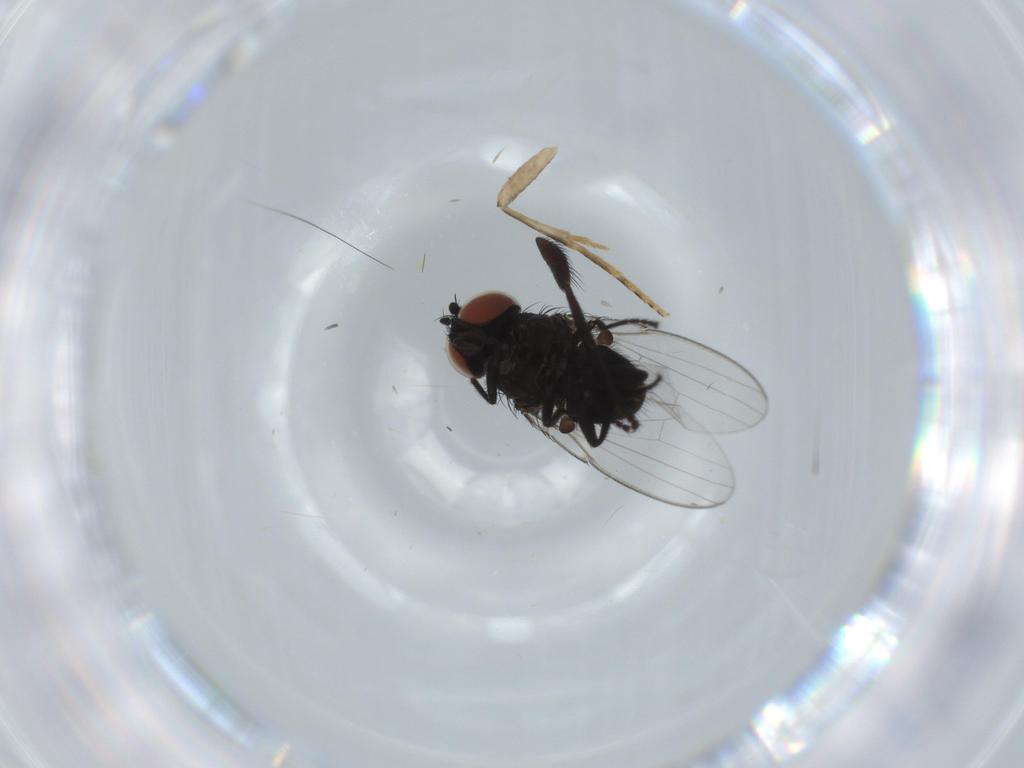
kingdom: Animalia
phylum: Arthropoda
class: Insecta
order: Diptera
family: Milichiidae
